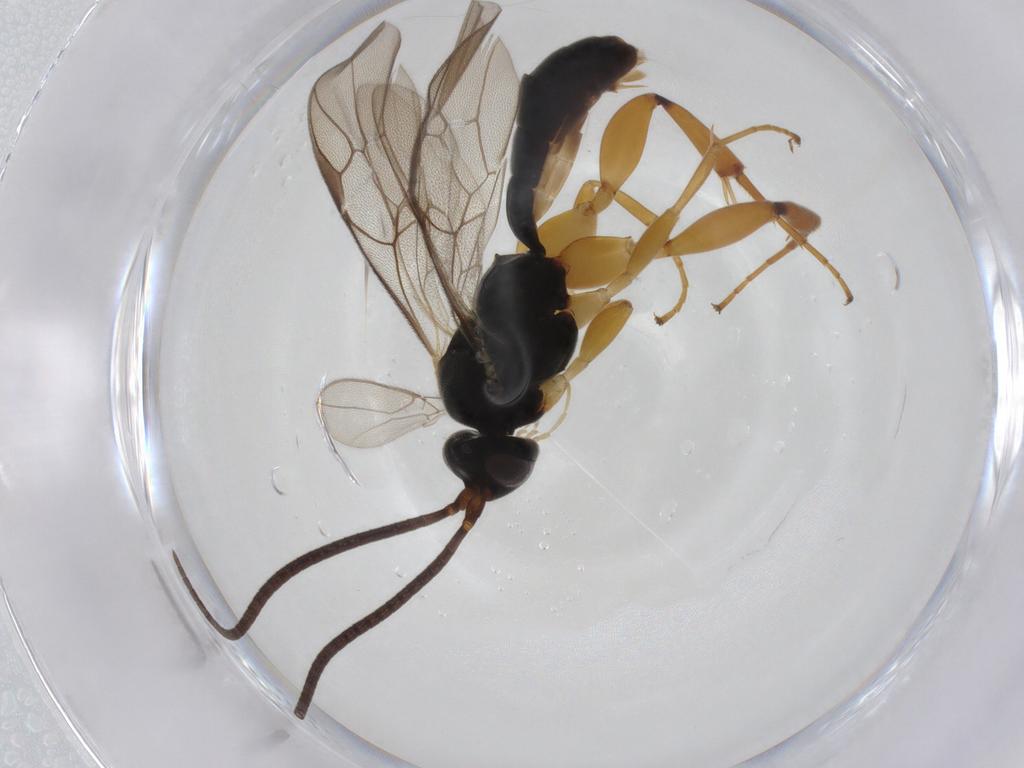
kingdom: Animalia
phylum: Arthropoda
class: Insecta
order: Hymenoptera
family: Ichneumonidae
